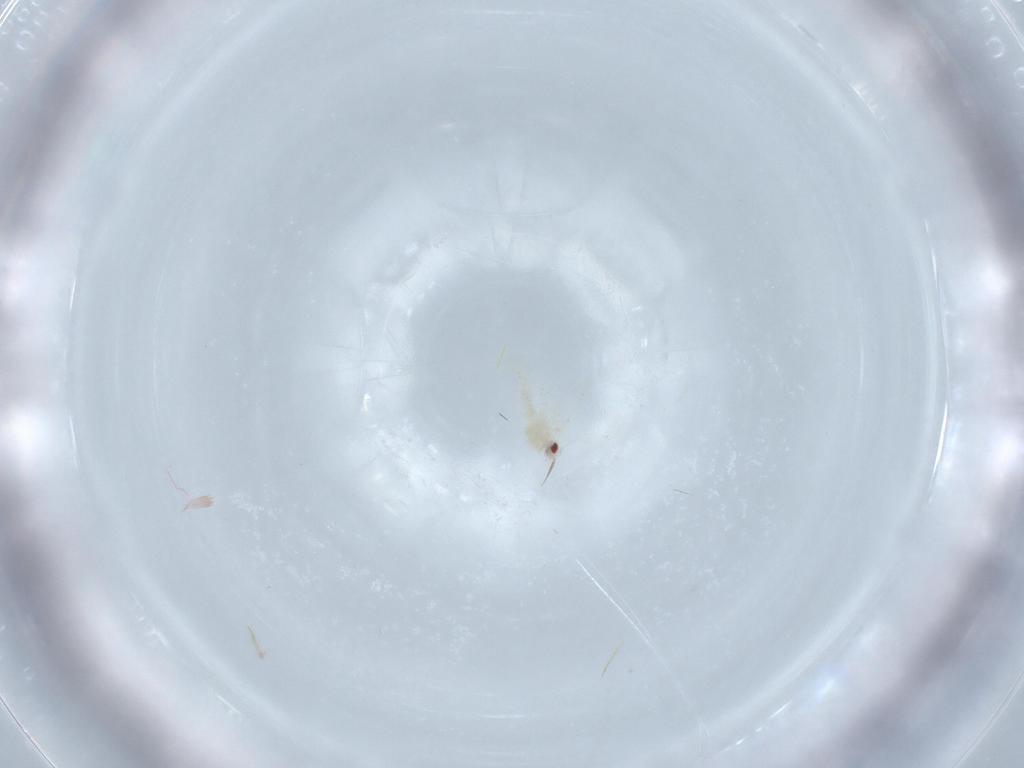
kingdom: Animalia
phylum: Arthropoda
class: Insecta
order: Hemiptera
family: Aleyrodidae
